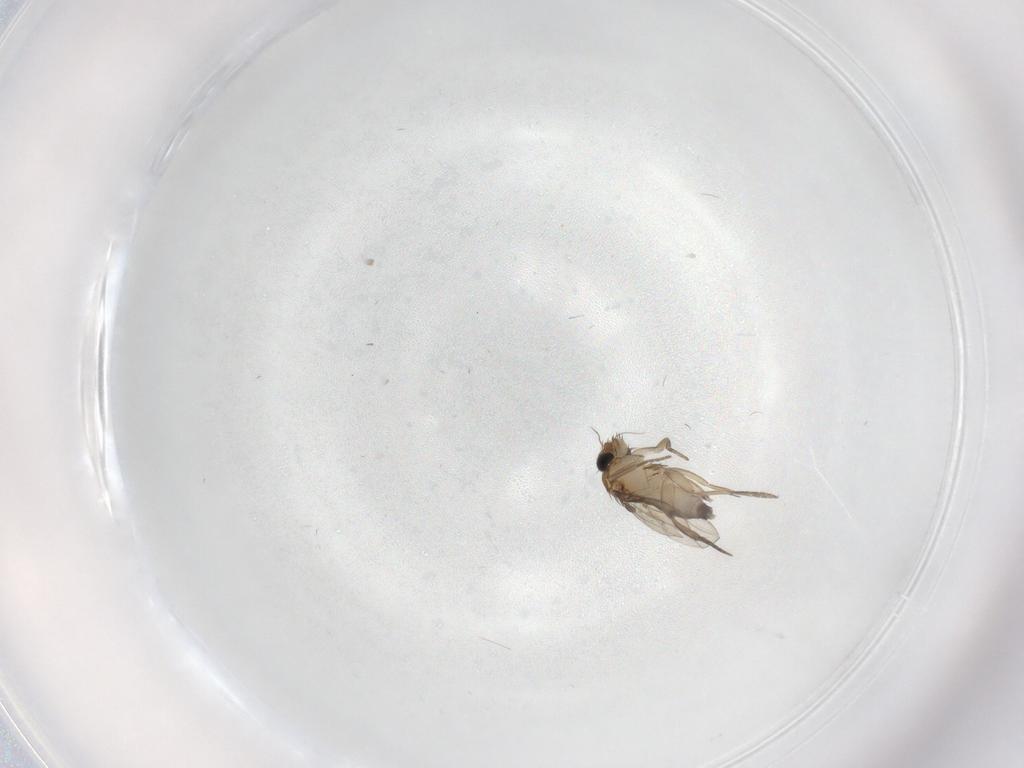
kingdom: Animalia
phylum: Arthropoda
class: Insecta
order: Diptera
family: Phoridae
